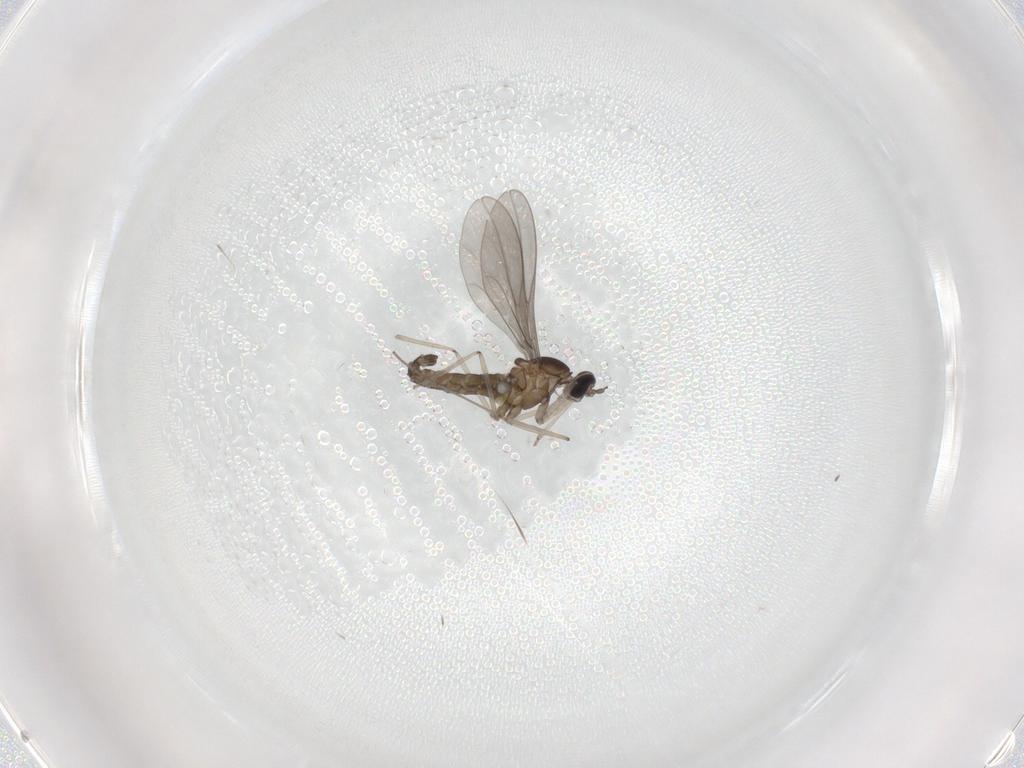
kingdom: Animalia
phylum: Arthropoda
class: Insecta
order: Diptera
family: Cecidomyiidae
